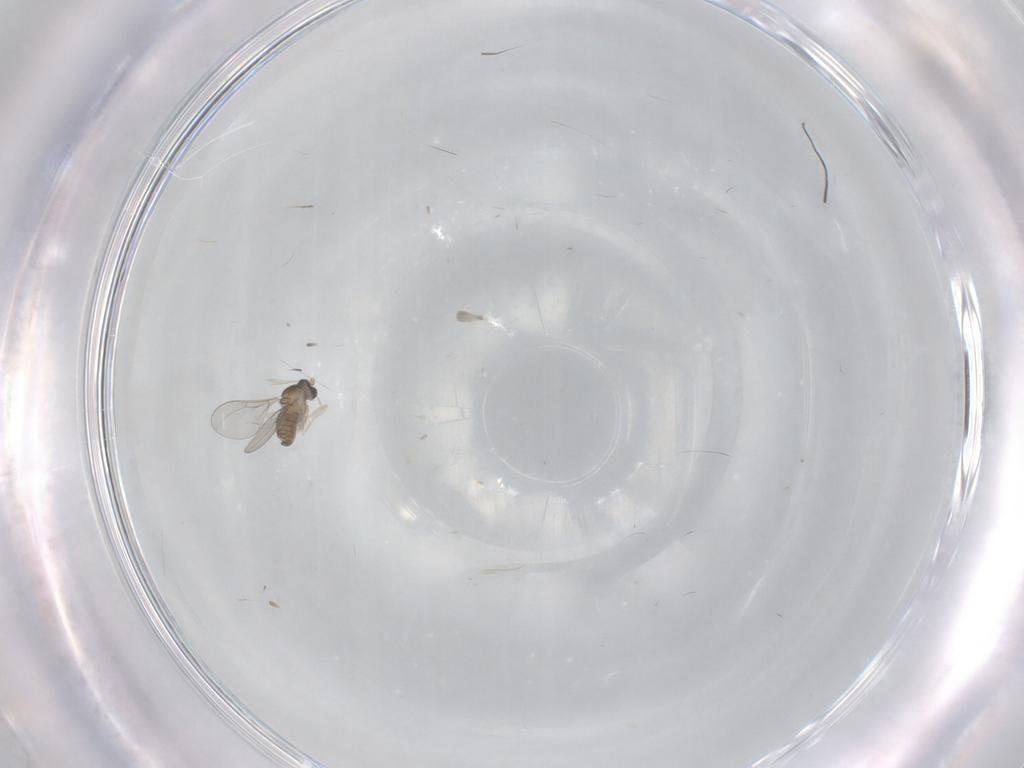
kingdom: Animalia
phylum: Arthropoda
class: Insecta
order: Diptera
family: Cecidomyiidae
